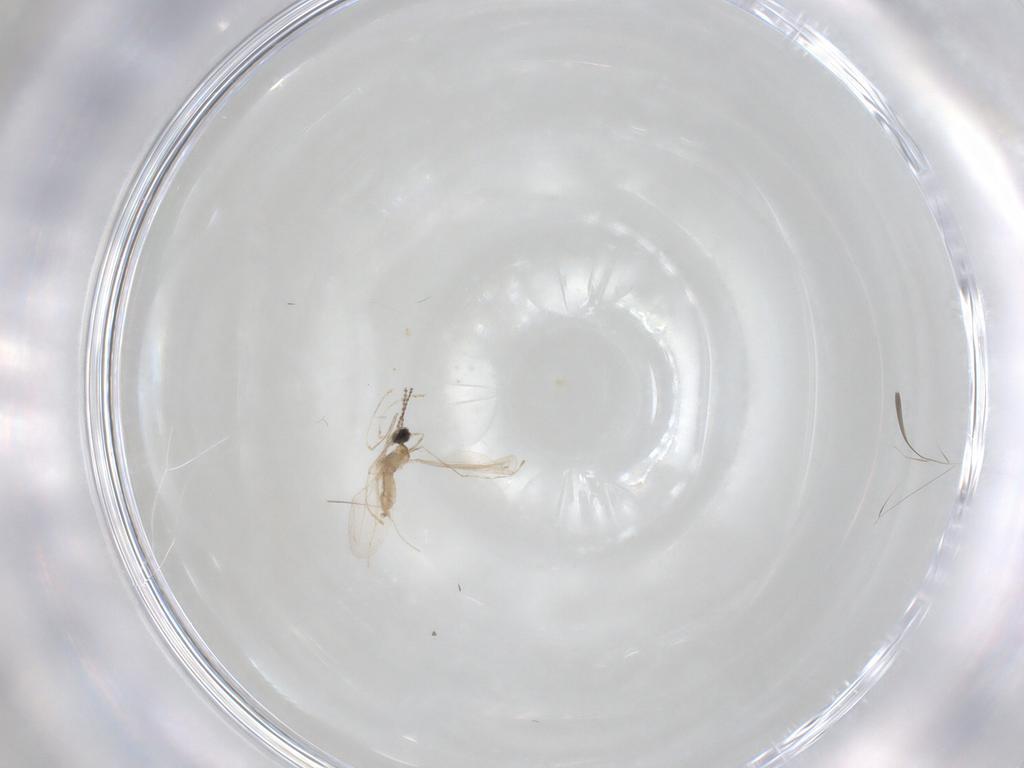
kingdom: Animalia
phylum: Arthropoda
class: Insecta
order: Diptera
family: Cecidomyiidae
